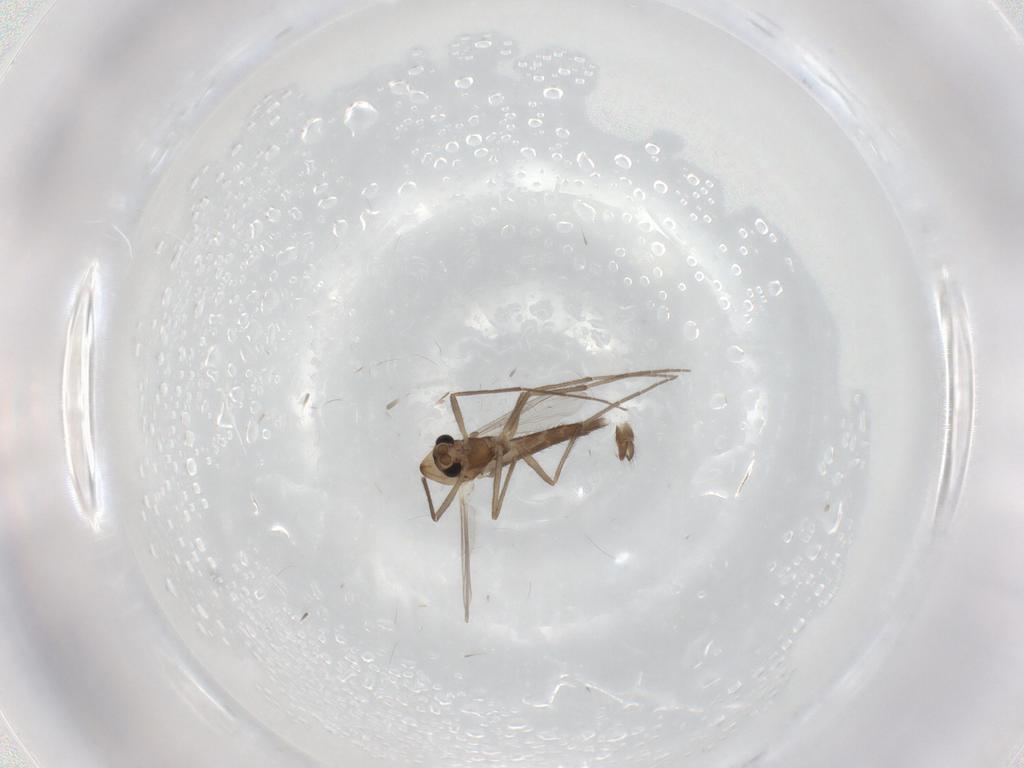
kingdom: Animalia
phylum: Arthropoda
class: Insecta
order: Diptera
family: Chironomidae
